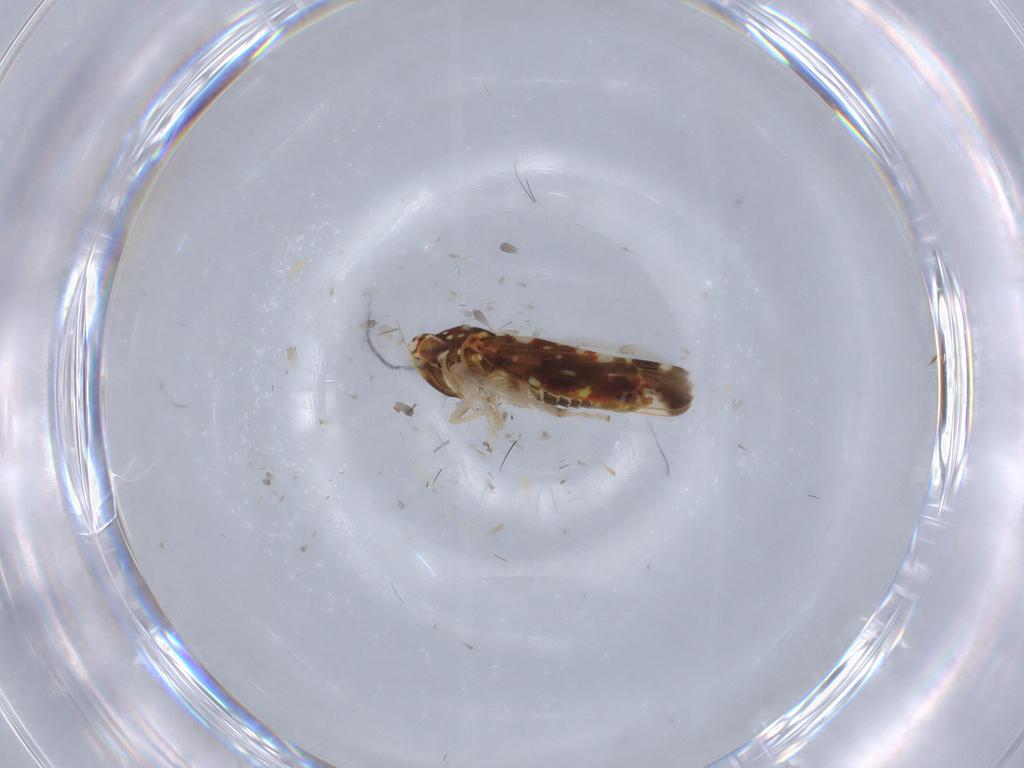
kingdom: Animalia
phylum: Arthropoda
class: Insecta
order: Hemiptera
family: Cicadellidae
